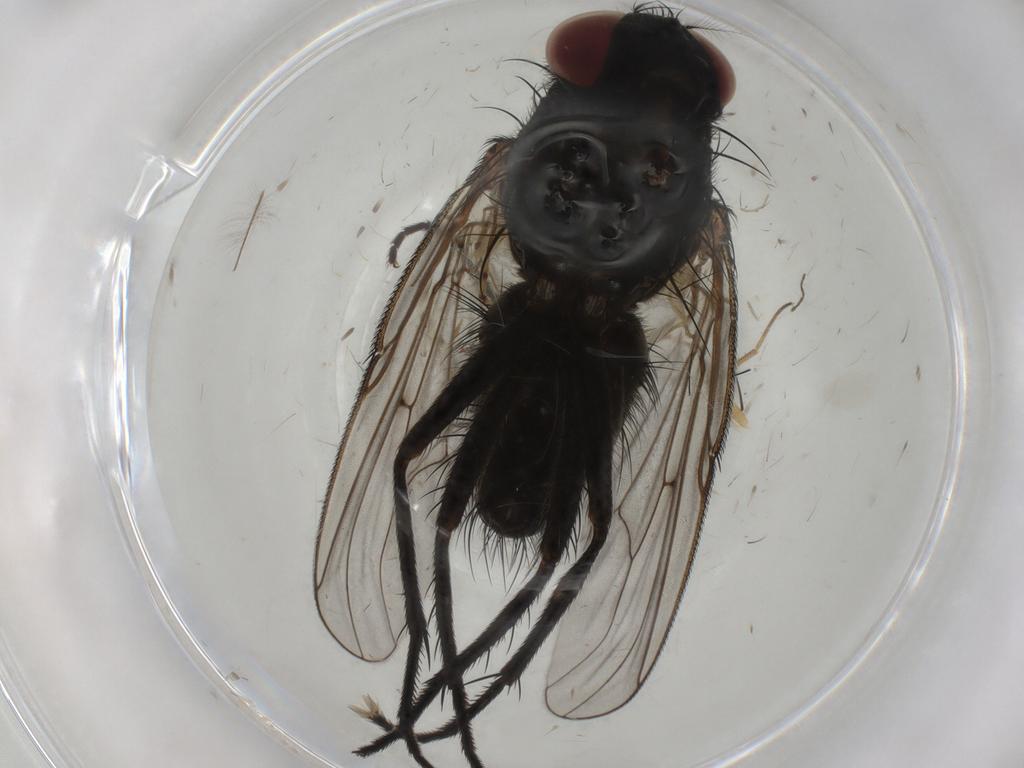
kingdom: Animalia
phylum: Arthropoda
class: Insecta
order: Diptera
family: Muscidae
